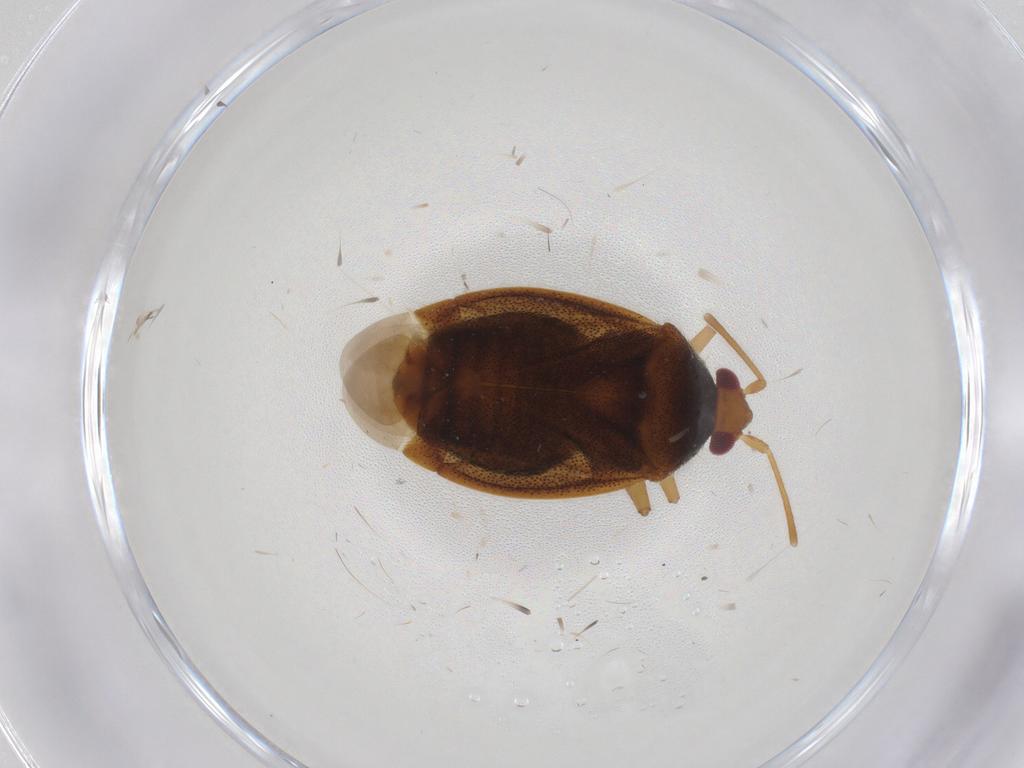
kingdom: Animalia
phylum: Arthropoda
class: Insecta
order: Hemiptera
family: Miridae
